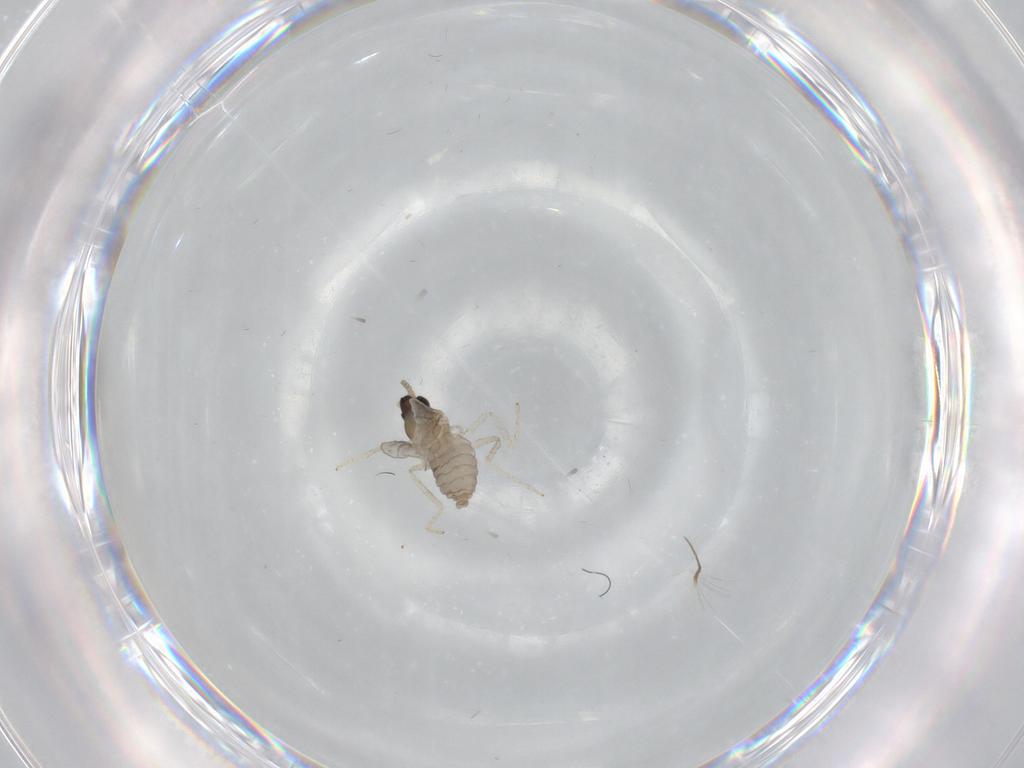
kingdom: Animalia
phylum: Arthropoda
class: Insecta
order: Diptera
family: Cecidomyiidae
